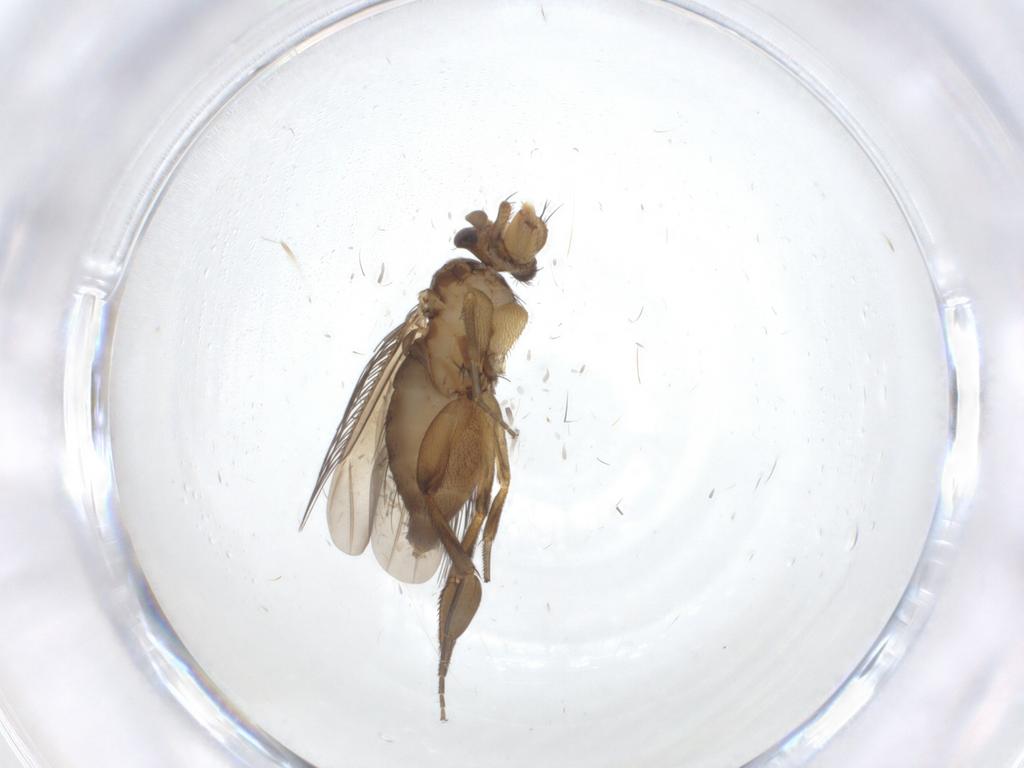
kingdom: Animalia
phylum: Arthropoda
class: Insecta
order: Diptera
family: Phoridae
